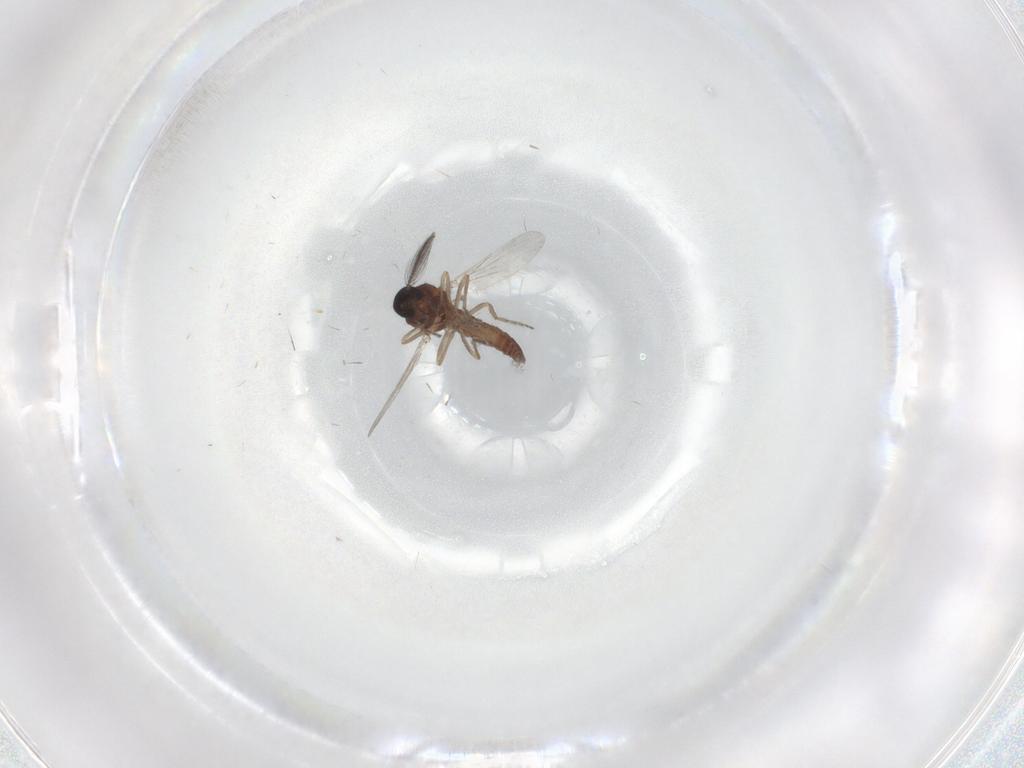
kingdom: Animalia
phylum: Arthropoda
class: Insecta
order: Diptera
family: Ceratopogonidae
